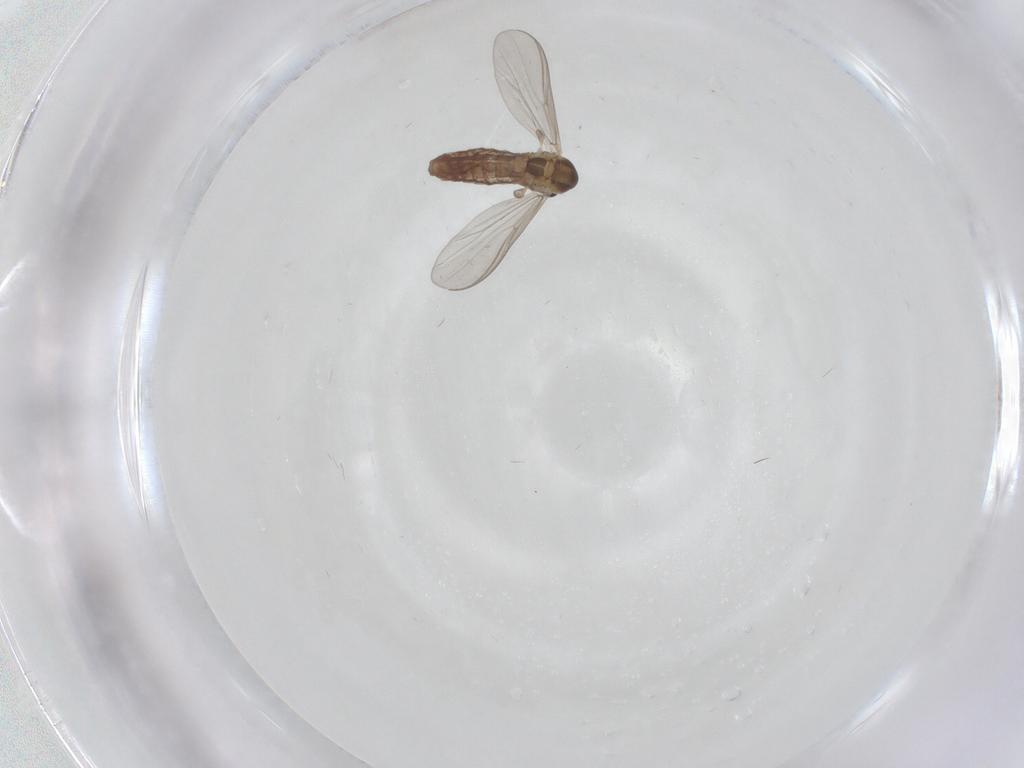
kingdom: Animalia
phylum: Arthropoda
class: Insecta
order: Diptera
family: Chironomidae
